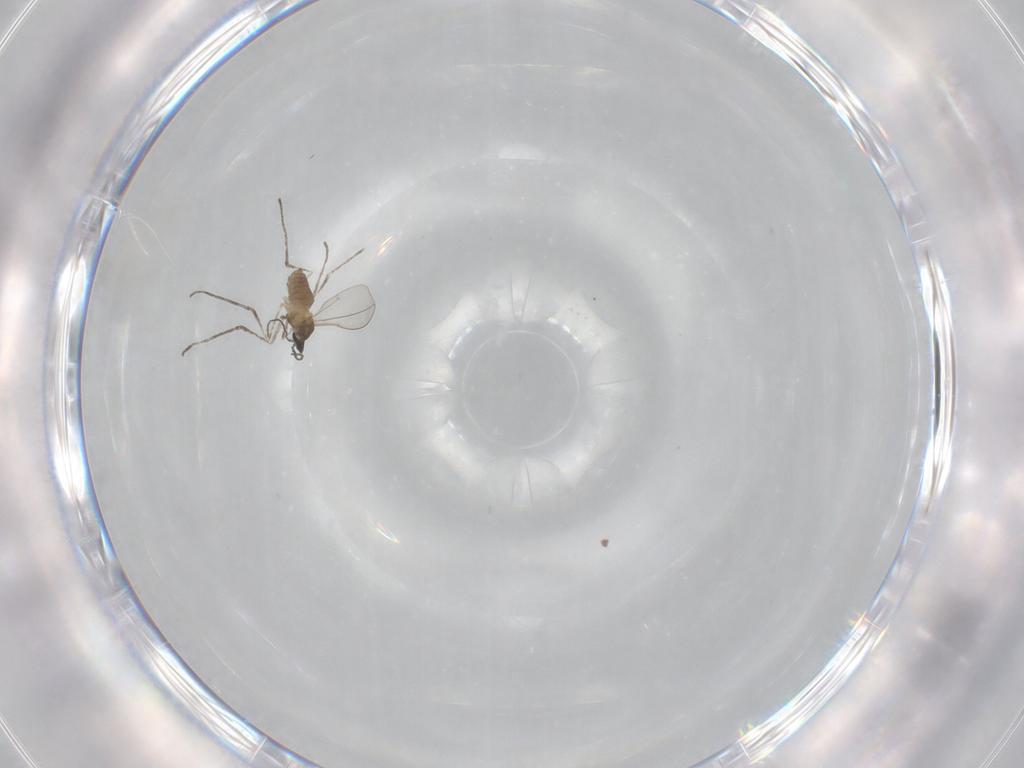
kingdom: Animalia
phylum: Arthropoda
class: Insecta
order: Diptera
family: Cecidomyiidae
